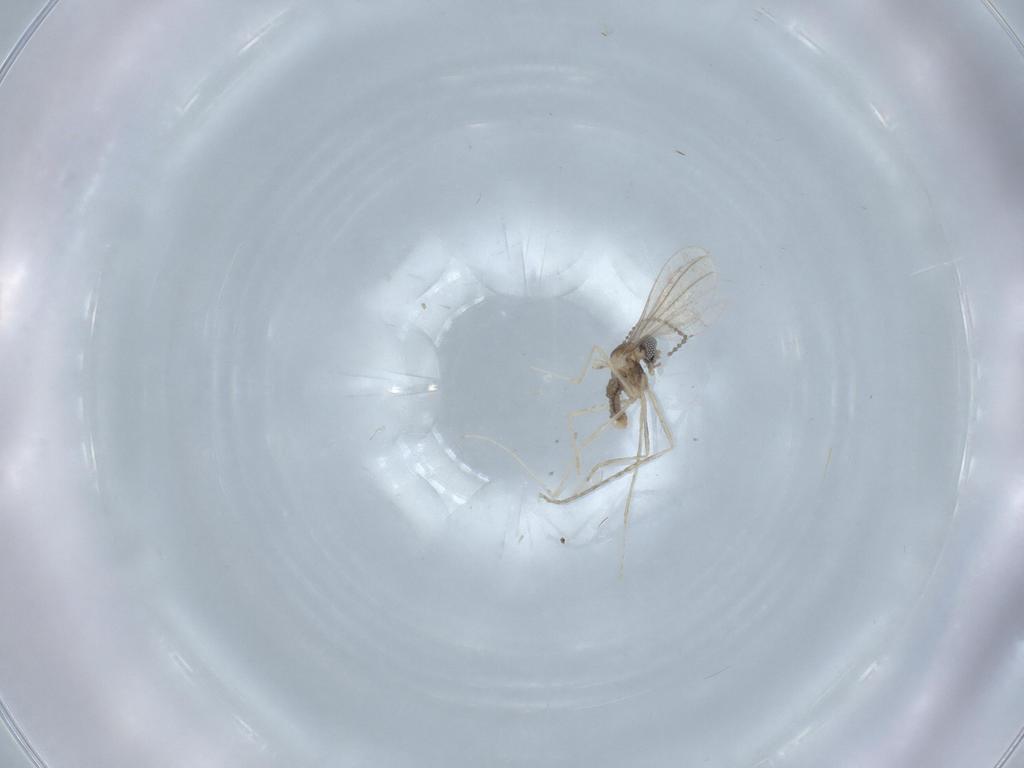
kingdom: Animalia
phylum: Arthropoda
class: Insecta
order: Diptera
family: Cecidomyiidae
